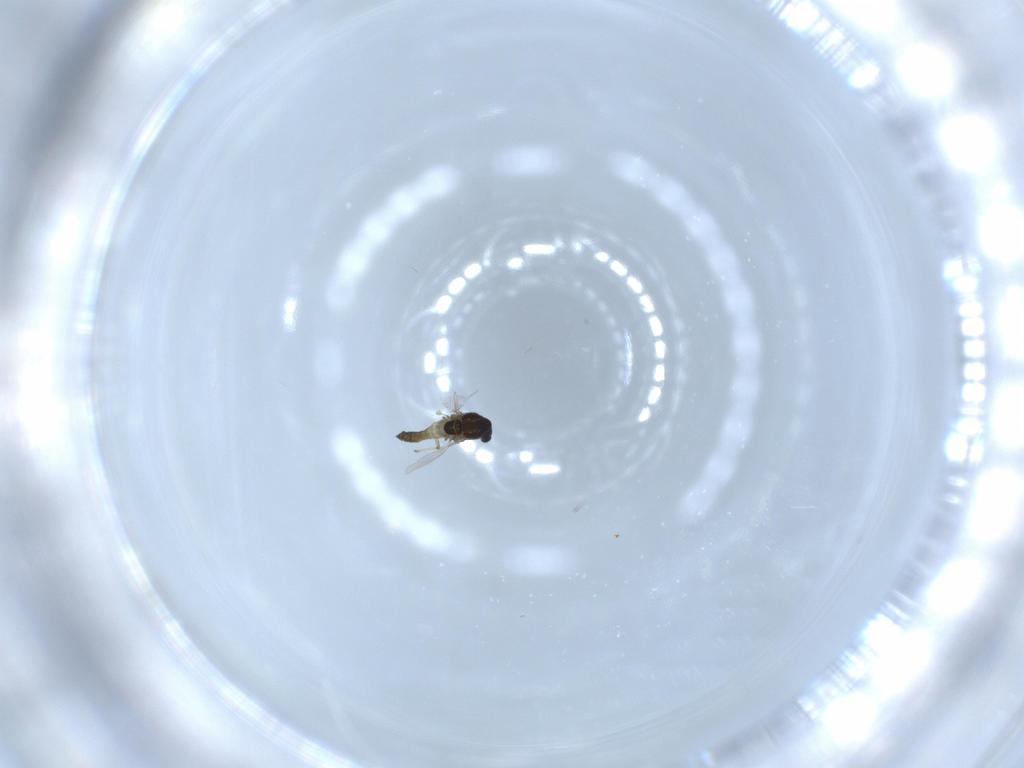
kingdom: Animalia
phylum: Arthropoda
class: Insecta
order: Diptera
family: Chironomidae
